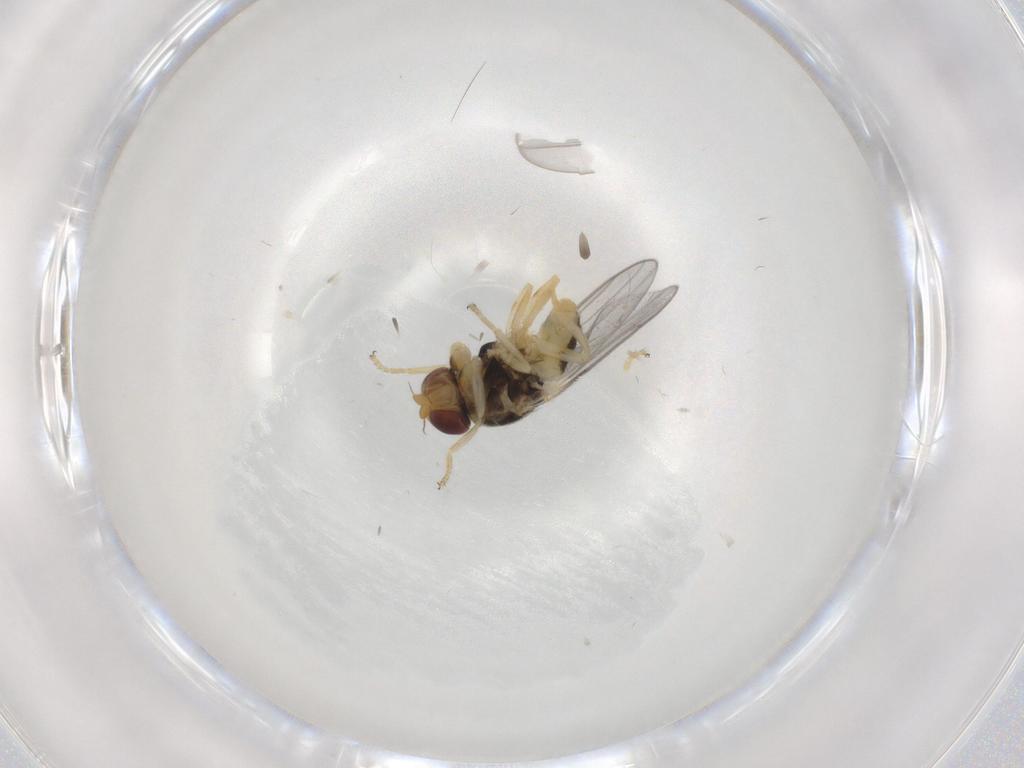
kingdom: Animalia
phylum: Arthropoda
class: Insecta
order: Diptera
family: Chloropidae
